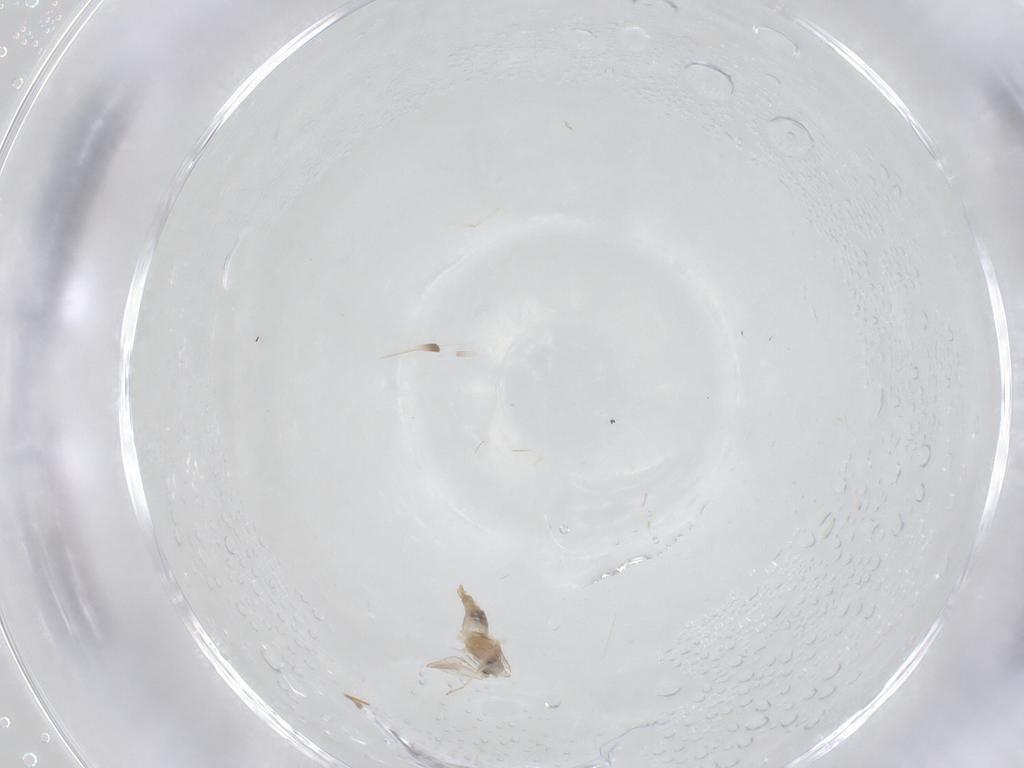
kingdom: Animalia
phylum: Arthropoda
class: Insecta
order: Diptera
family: Cecidomyiidae
